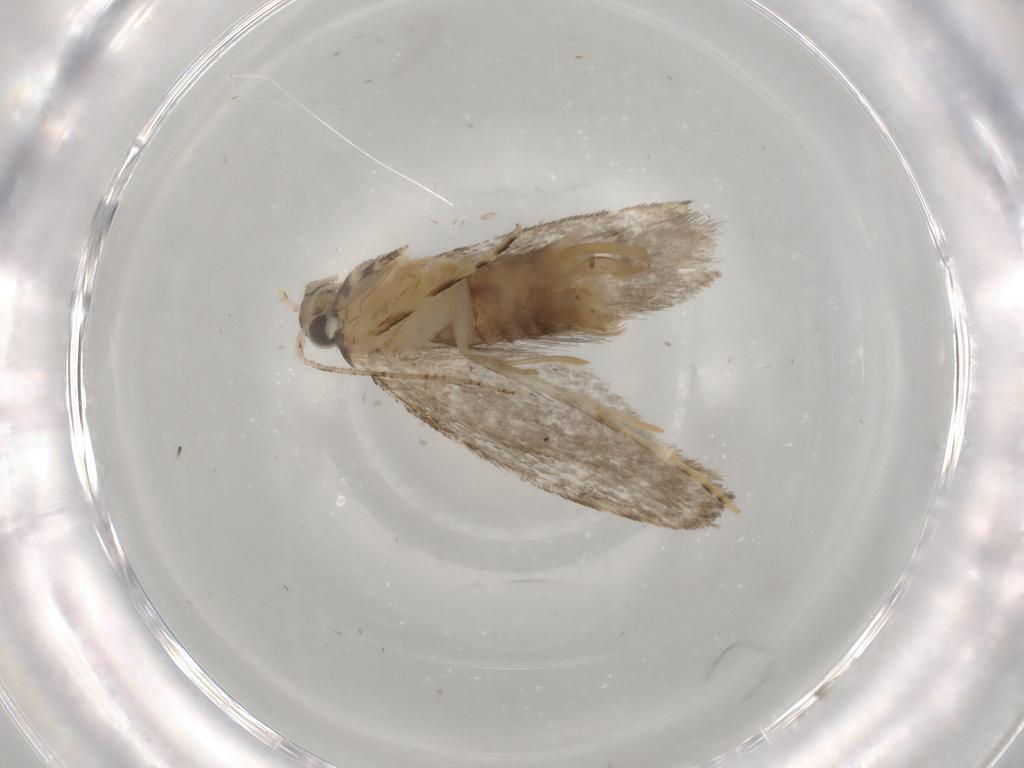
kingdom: Animalia
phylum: Arthropoda
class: Insecta
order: Lepidoptera
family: Tineidae
